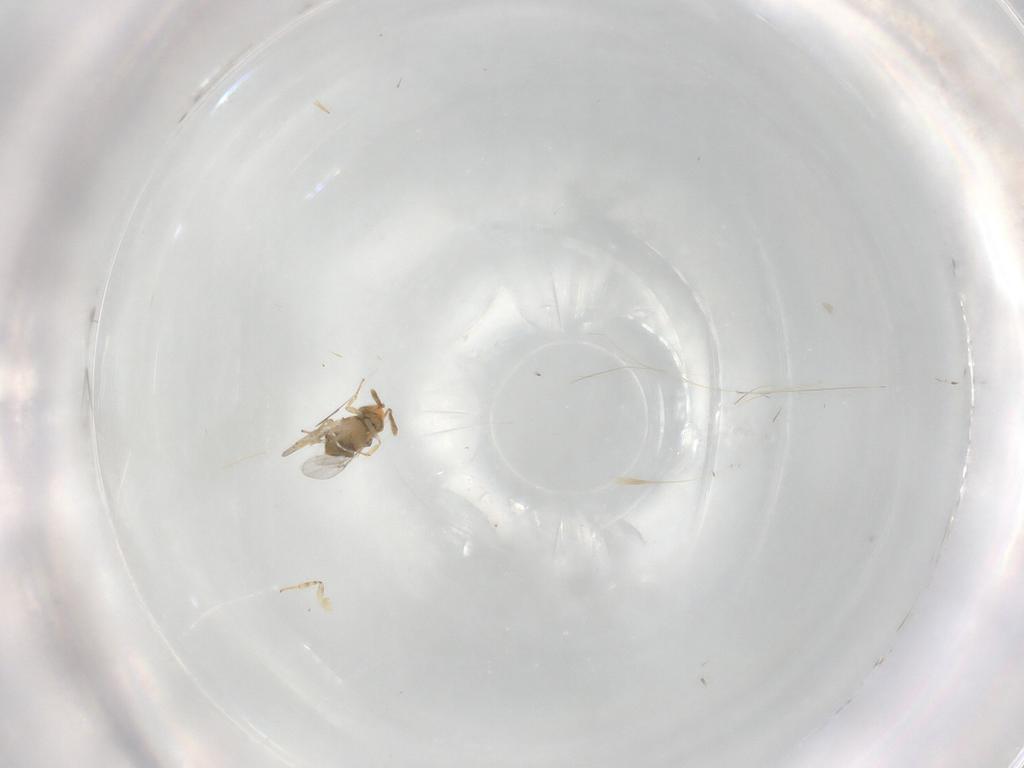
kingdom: Animalia
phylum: Arthropoda
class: Insecta
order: Hymenoptera
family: Encyrtidae
